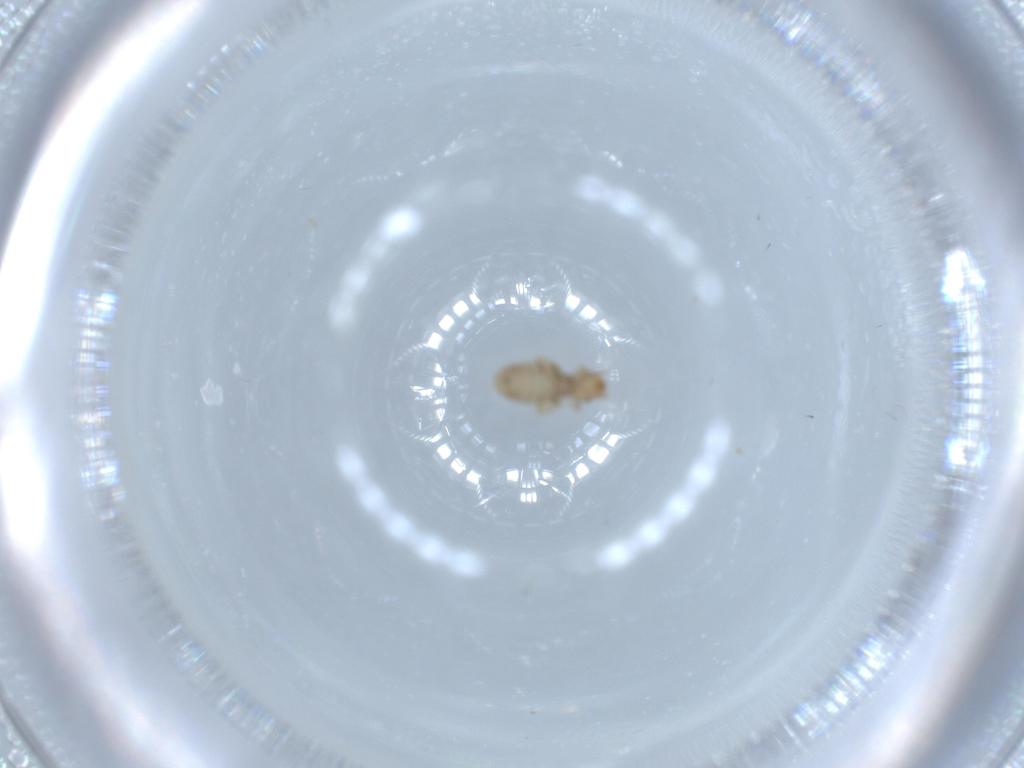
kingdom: Animalia
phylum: Arthropoda
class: Insecta
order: Psocodea
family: Liposcelididae
